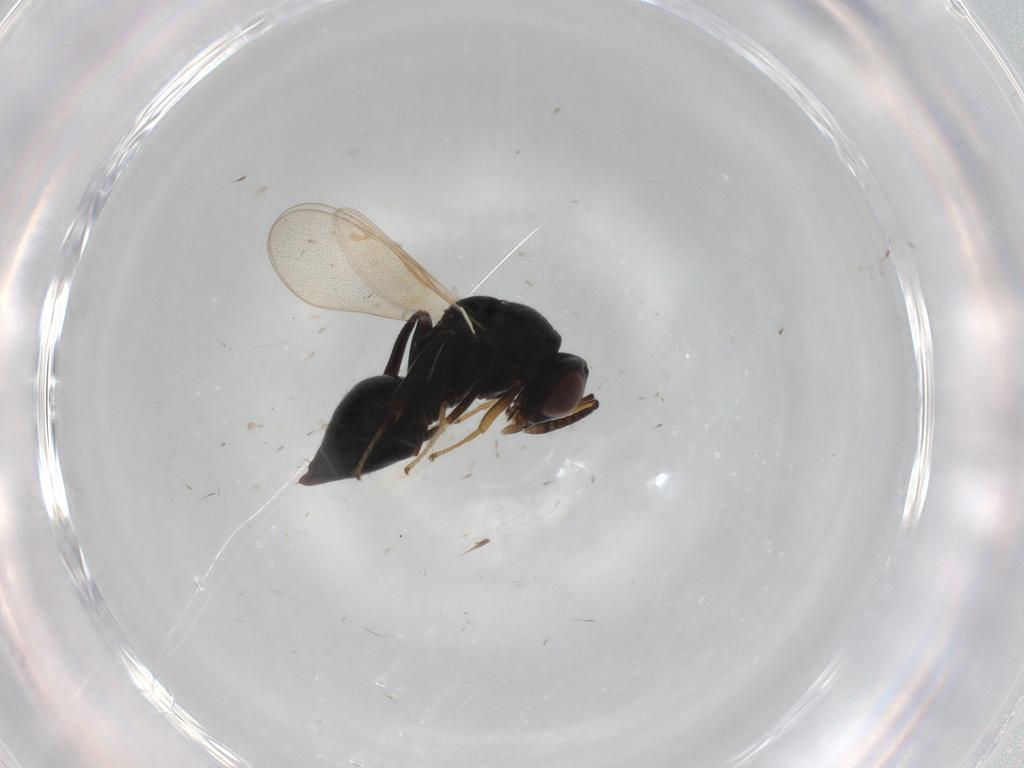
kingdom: Animalia
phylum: Arthropoda
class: Insecta
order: Hymenoptera
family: Torymidae
